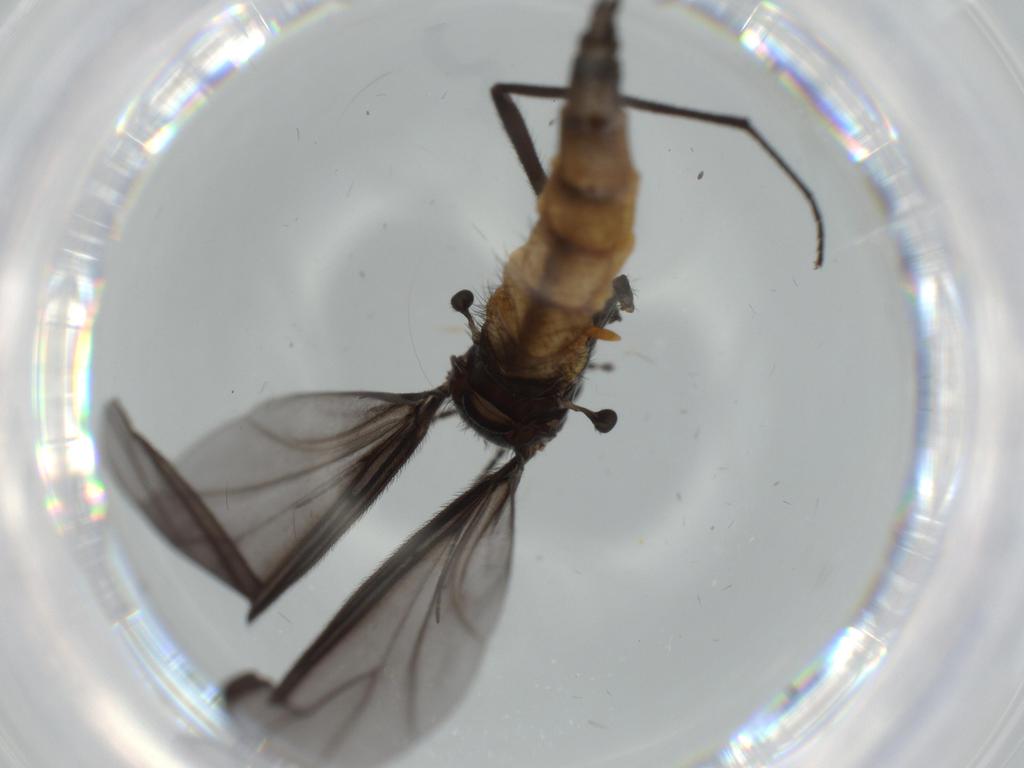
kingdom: Animalia
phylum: Arthropoda
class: Insecta
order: Diptera
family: Sciaridae
